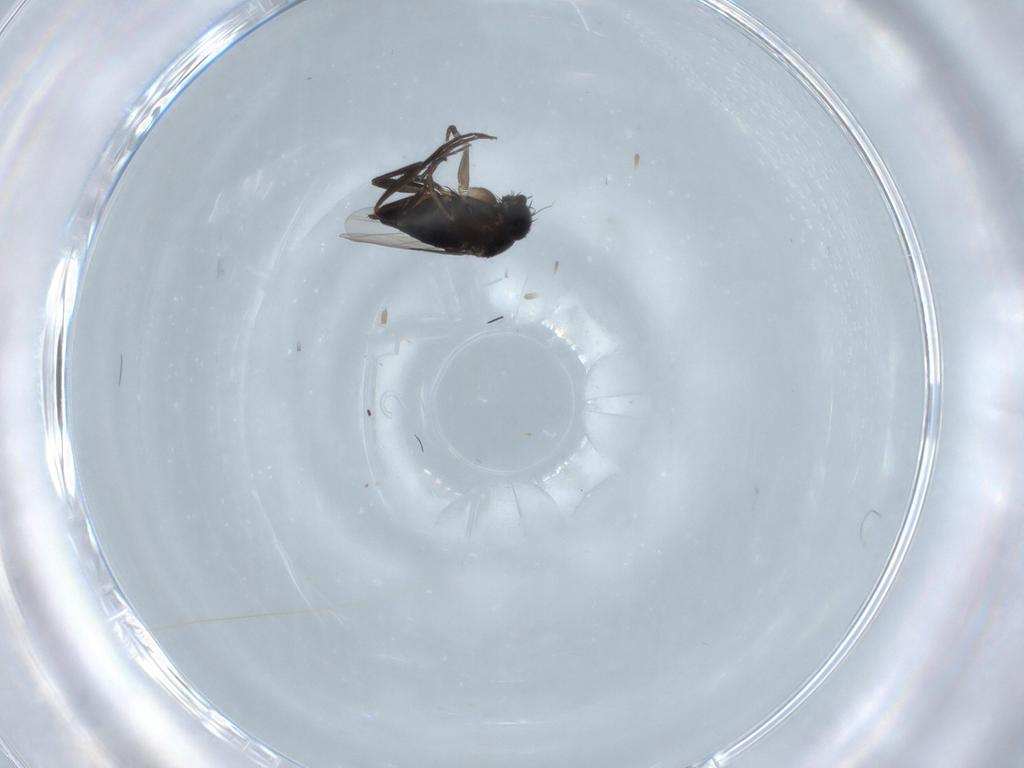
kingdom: Animalia
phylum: Arthropoda
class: Insecta
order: Diptera
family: Phoridae
